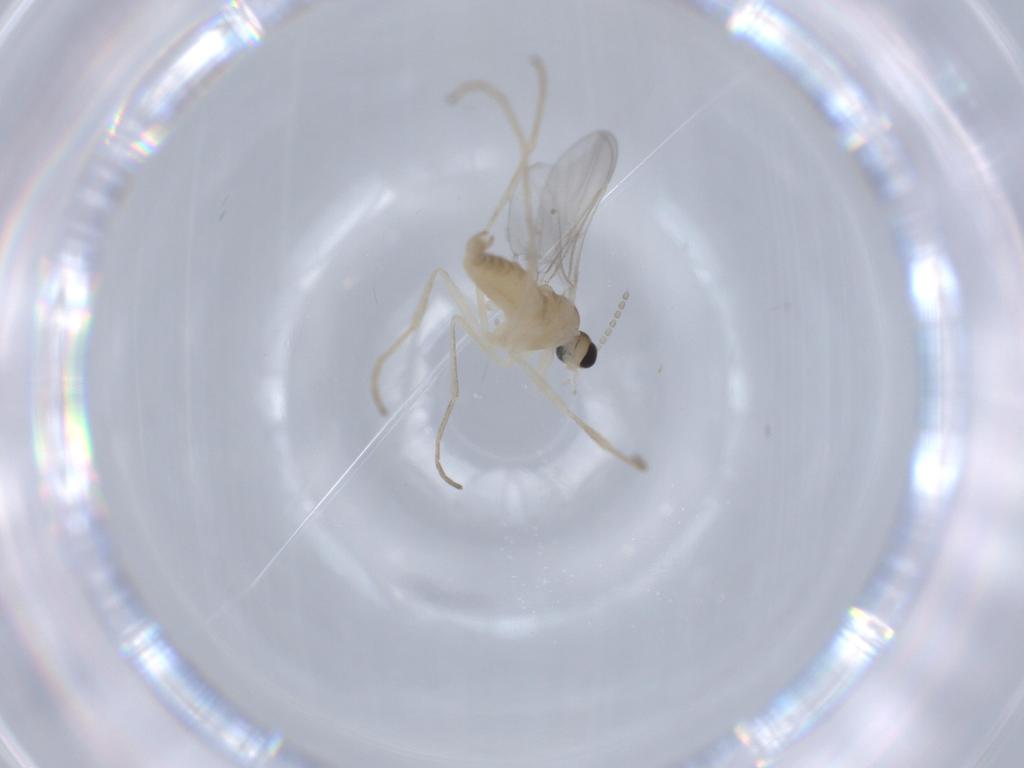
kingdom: Animalia
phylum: Arthropoda
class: Insecta
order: Diptera
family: Cecidomyiidae
